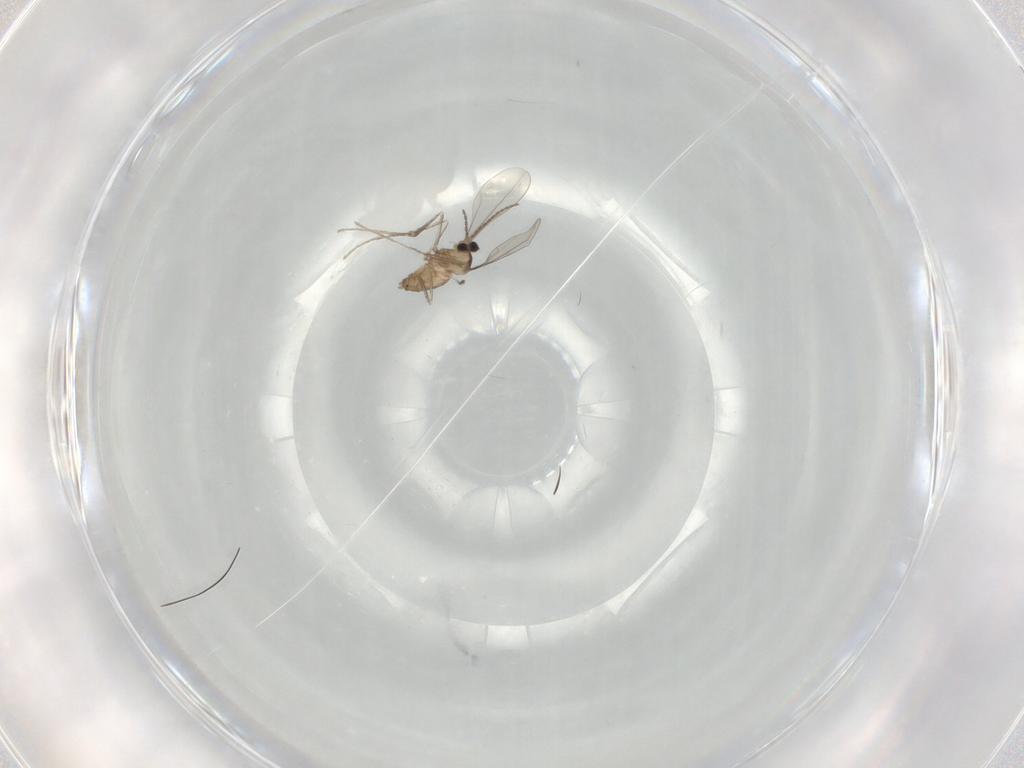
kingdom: Animalia
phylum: Arthropoda
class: Insecta
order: Diptera
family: Cecidomyiidae
